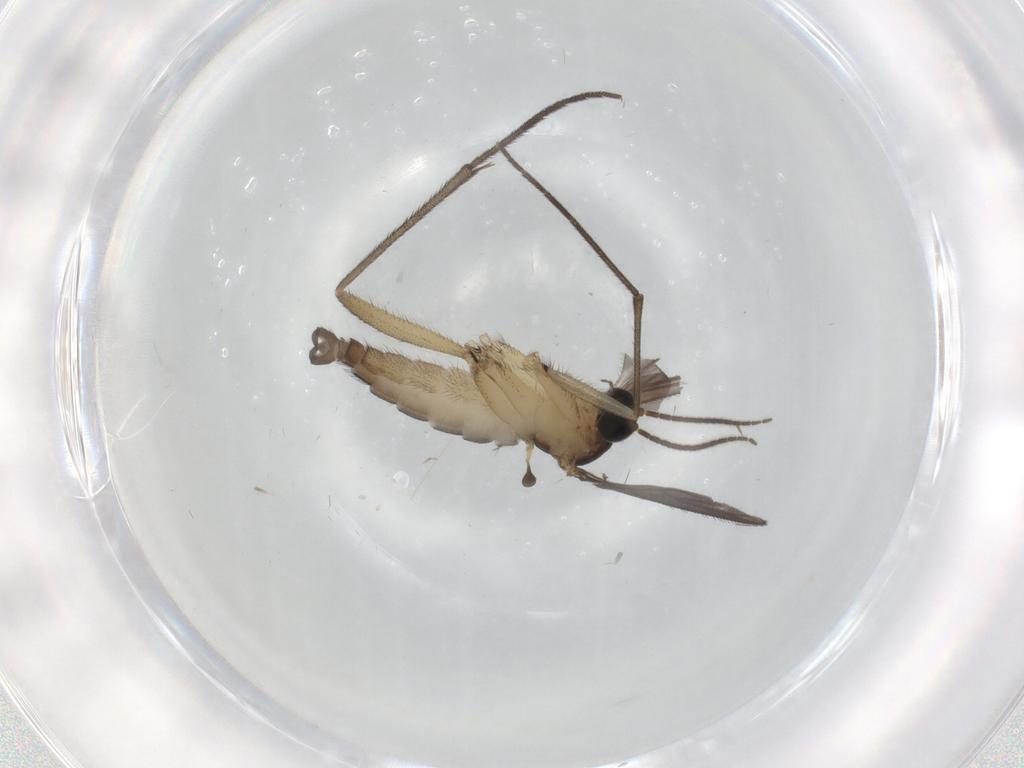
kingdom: Animalia
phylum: Arthropoda
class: Insecta
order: Diptera
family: Sciaridae
